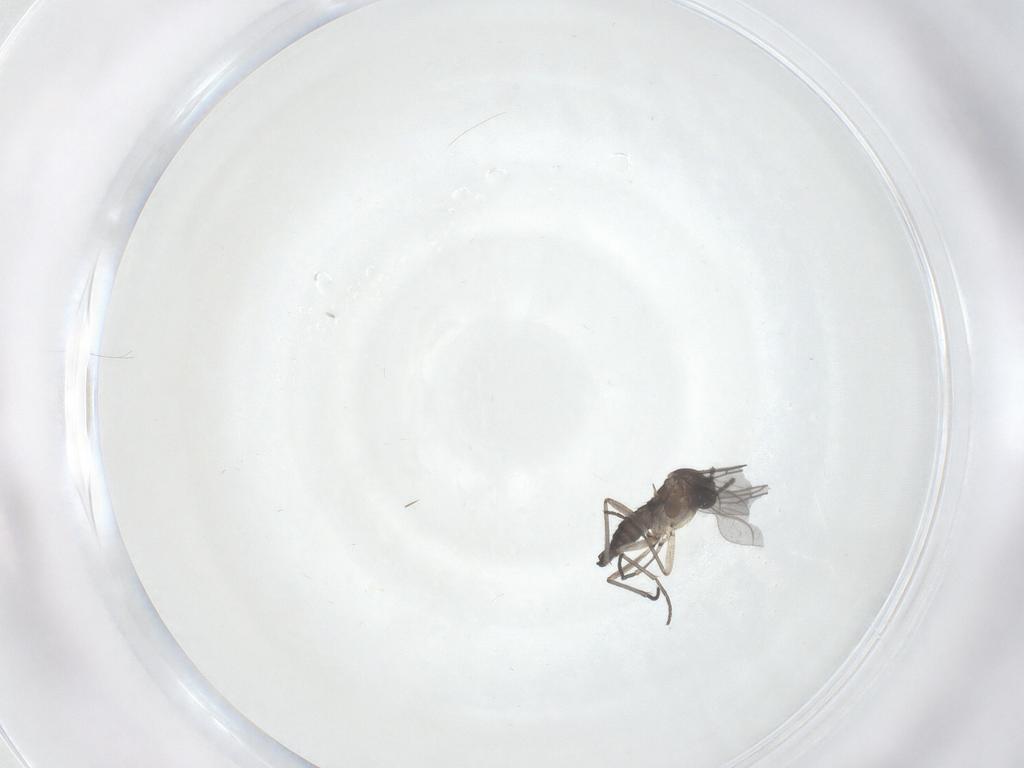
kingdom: Animalia
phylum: Arthropoda
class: Insecta
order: Diptera
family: Sciaridae
